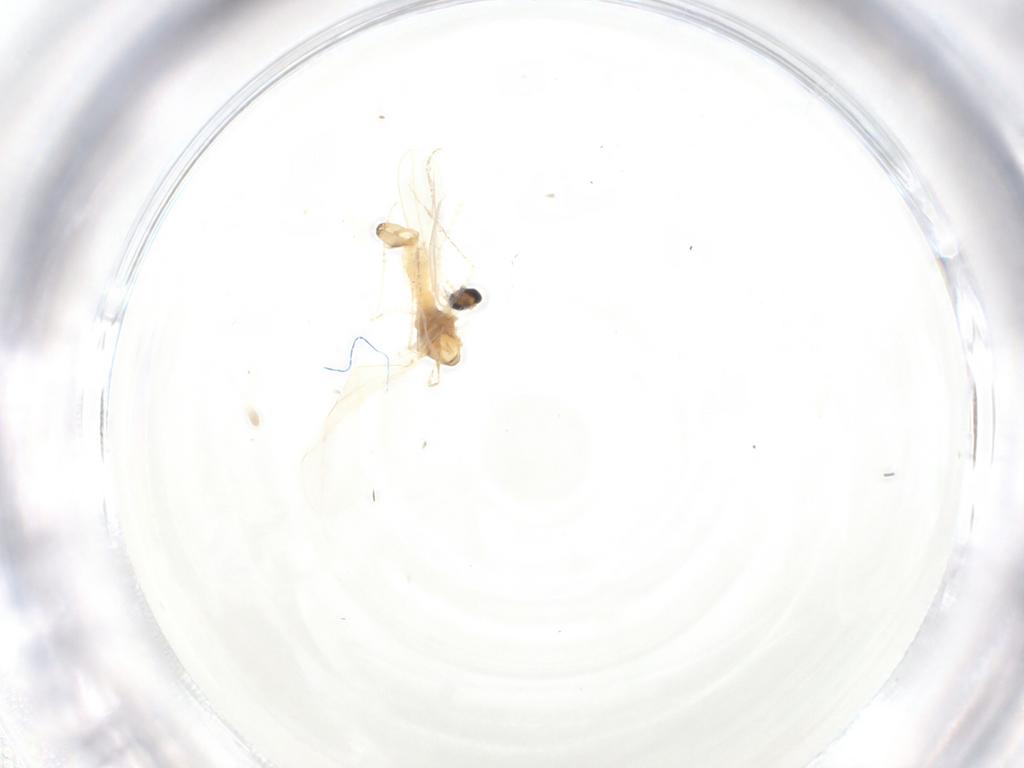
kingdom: Animalia
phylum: Arthropoda
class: Insecta
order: Diptera
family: Cecidomyiidae
